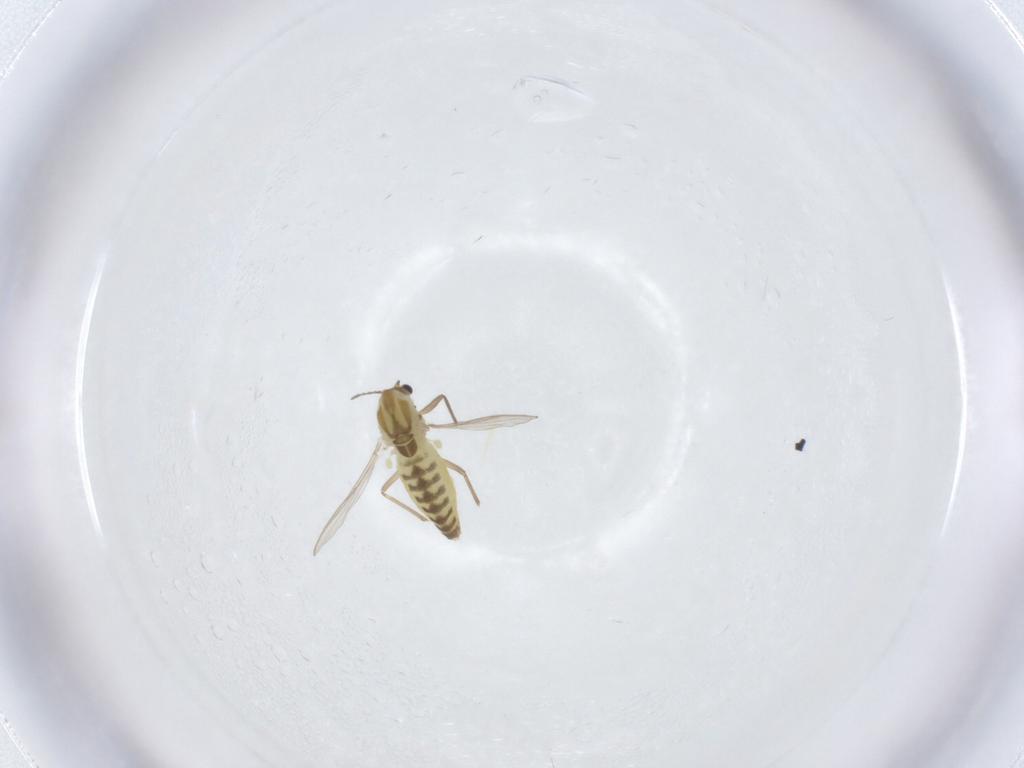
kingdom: Animalia
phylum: Arthropoda
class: Insecta
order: Diptera
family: Chironomidae
